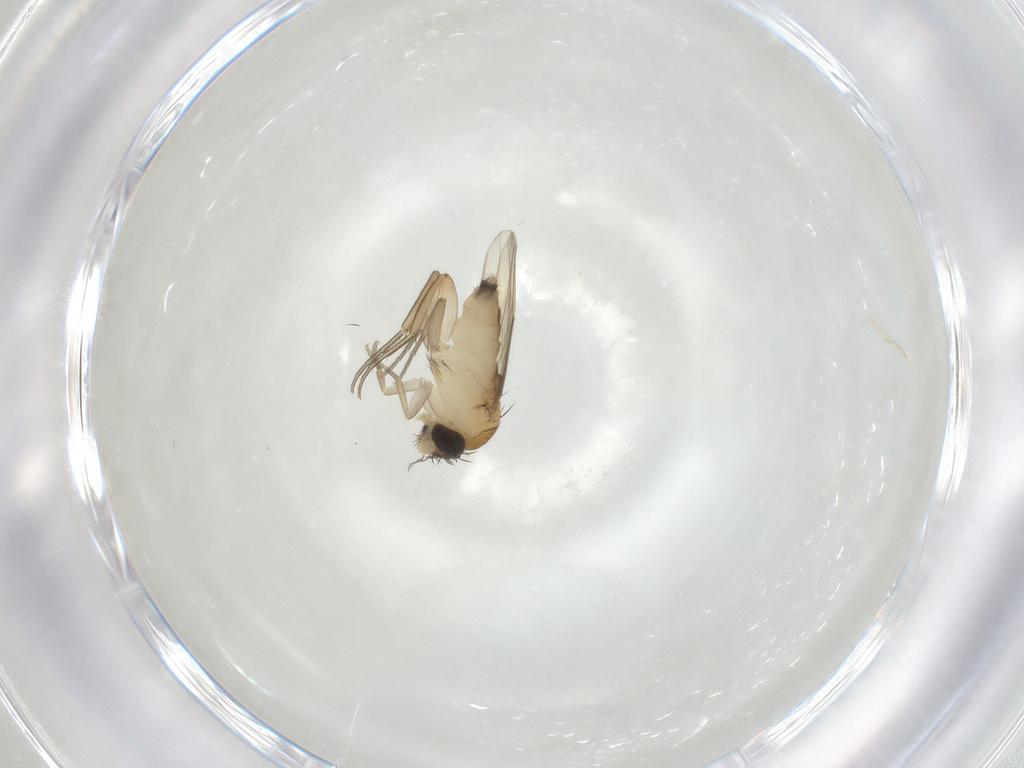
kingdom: Animalia
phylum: Arthropoda
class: Insecta
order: Diptera
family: Phoridae
